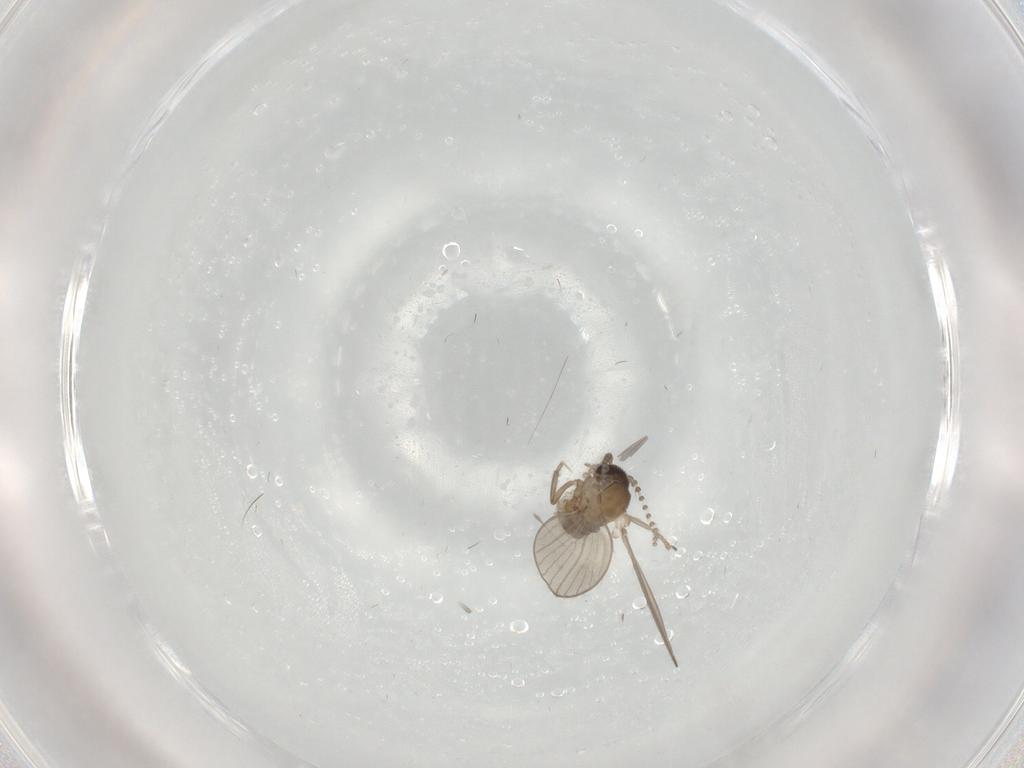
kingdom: Animalia
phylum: Arthropoda
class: Insecta
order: Diptera
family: Psychodidae
